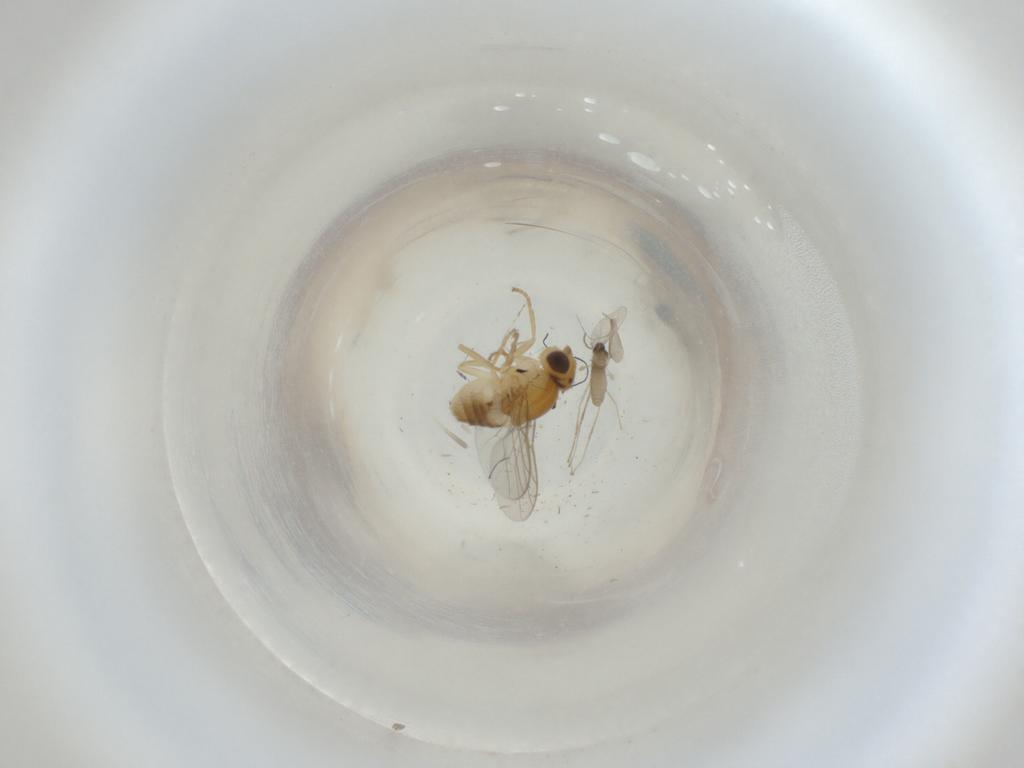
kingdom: Animalia
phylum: Arthropoda
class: Insecta
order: Diptera
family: Chloropidae
